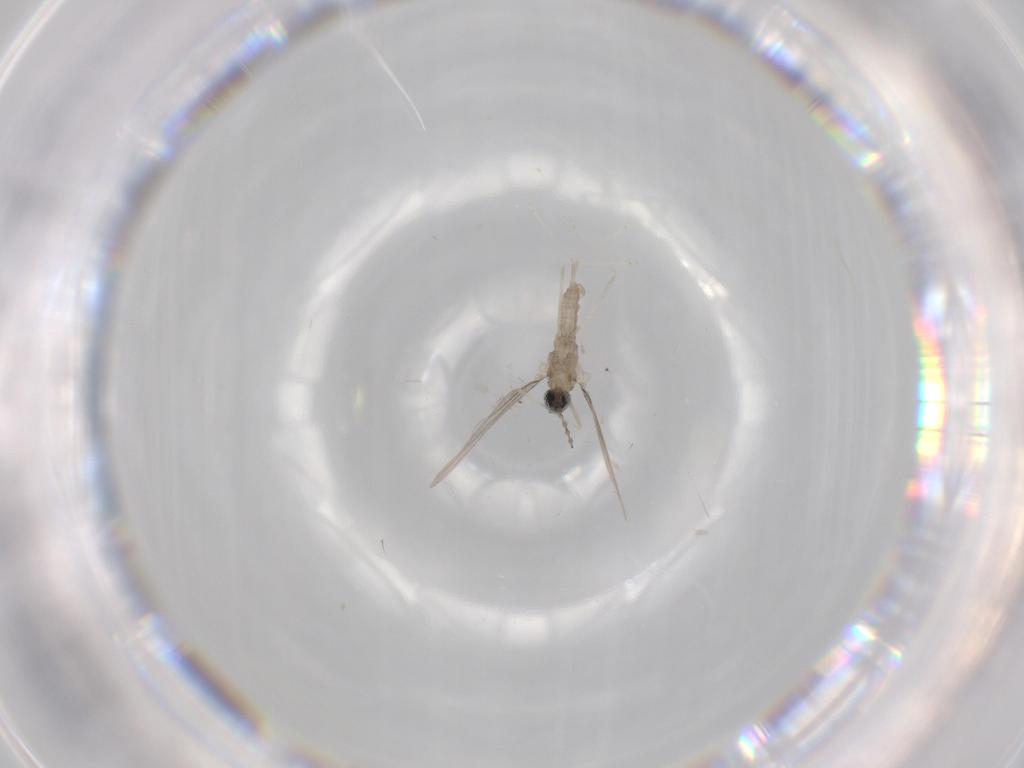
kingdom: Animalia
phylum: Arthropoda
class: Insecta
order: Diptera
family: Cecidomyiidae
